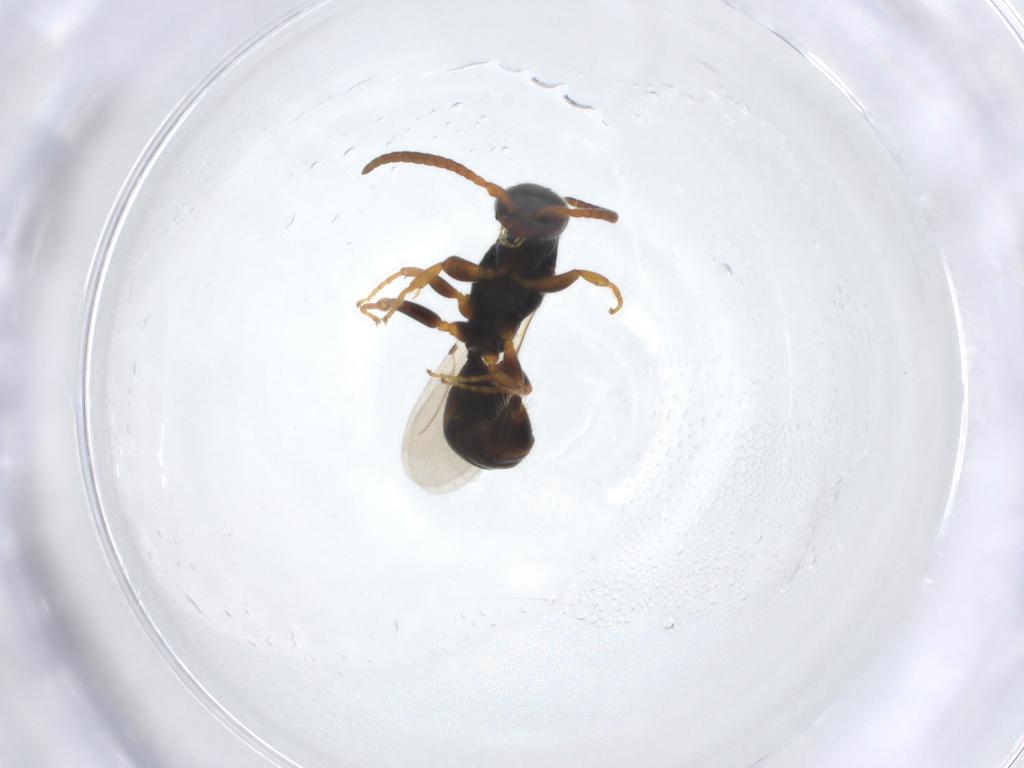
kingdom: Animalia
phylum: Arthropoda
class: Insecta
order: Hymenoptera
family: Bethylidae
